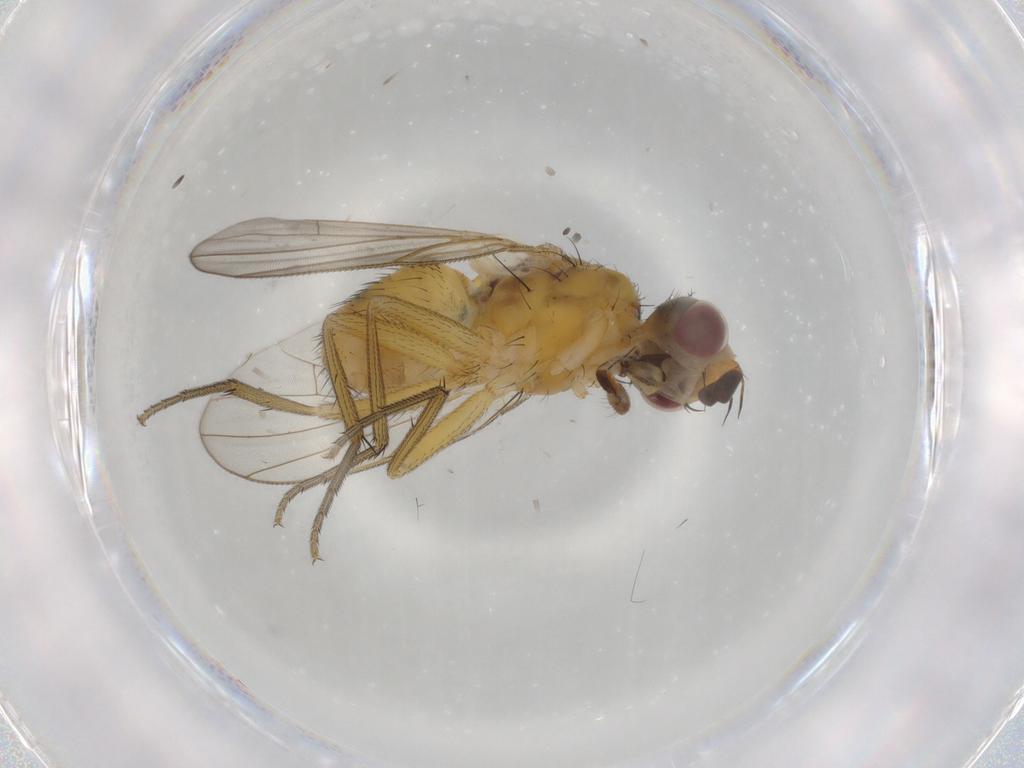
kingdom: Animalia
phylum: Arthropoda
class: Insecta
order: Diptera
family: Muscidae
